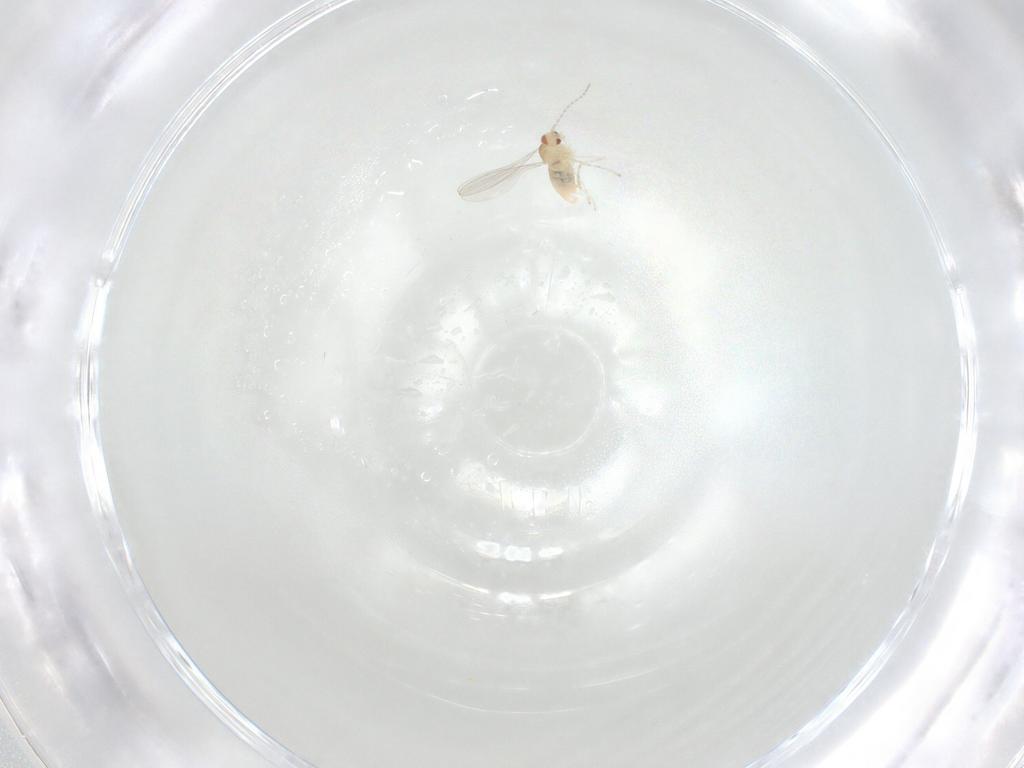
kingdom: Animalia
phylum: Arthropoda
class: Insecta
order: Diptera
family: Cecidomyiidae
